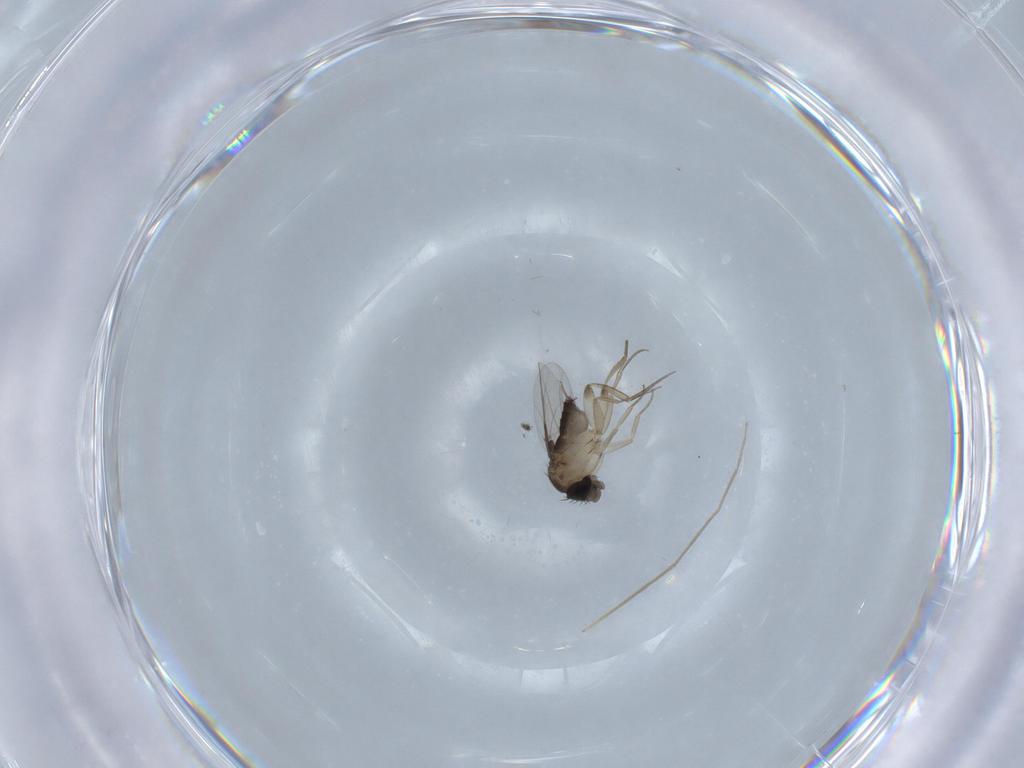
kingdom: Animalia
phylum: Arthropoda
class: Insecta
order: Diptera
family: Phoridae
